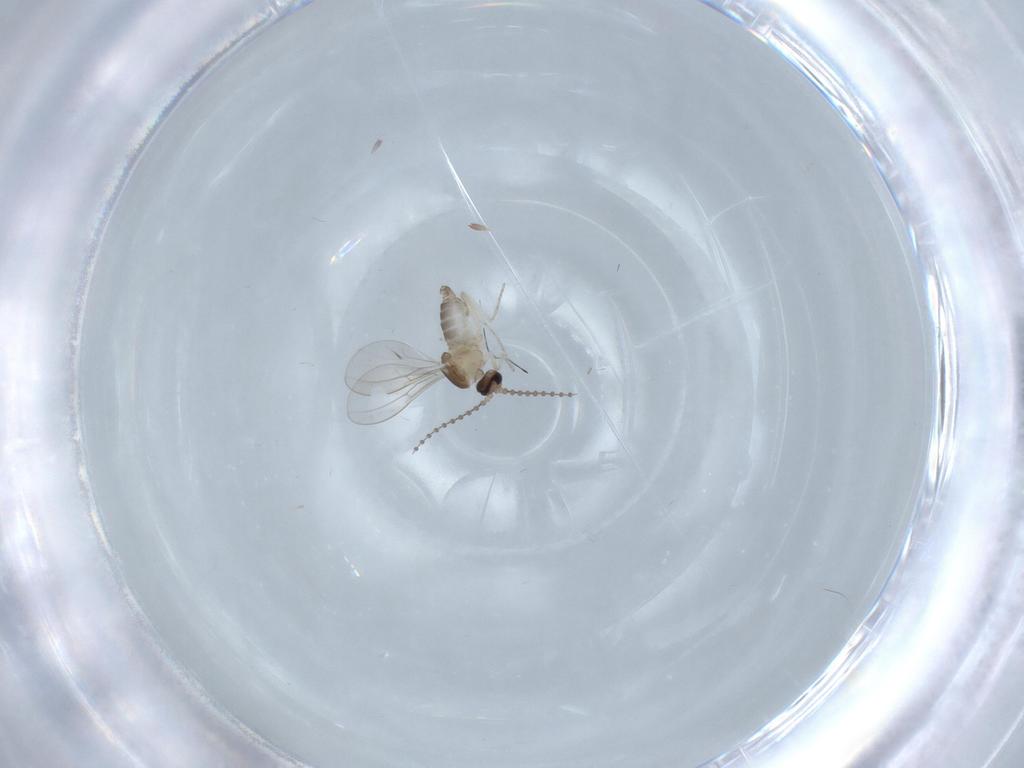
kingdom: Animalia
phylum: Arthropoda
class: Insecta
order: Diptera
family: Cecidomyiidae
